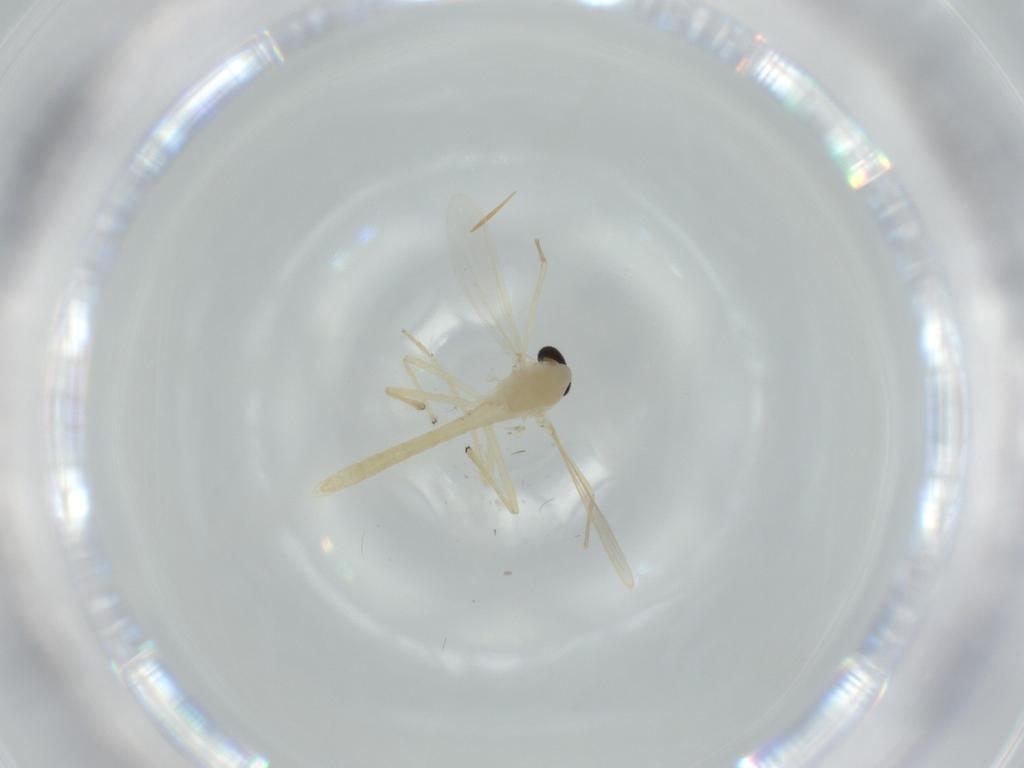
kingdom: Animalia
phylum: Arthropoda
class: Insecta
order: Diptera
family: Chironomidae
